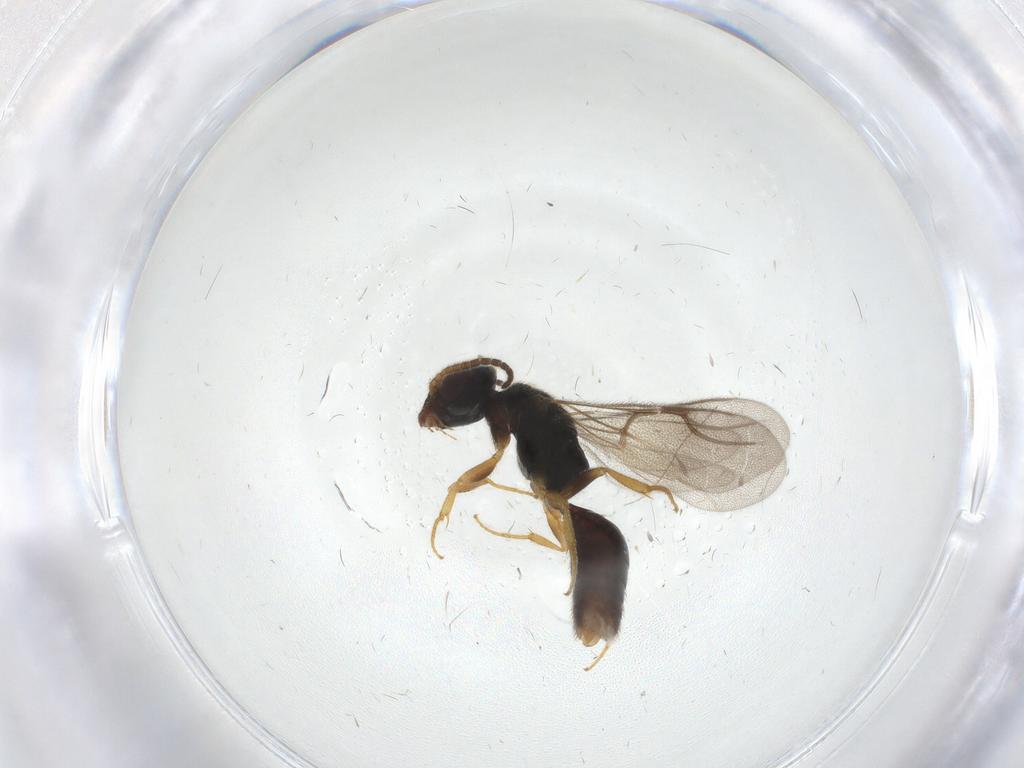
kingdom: Animalia
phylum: Arthropoda
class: Insecta
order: Hymenoptera
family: Bethylidae
